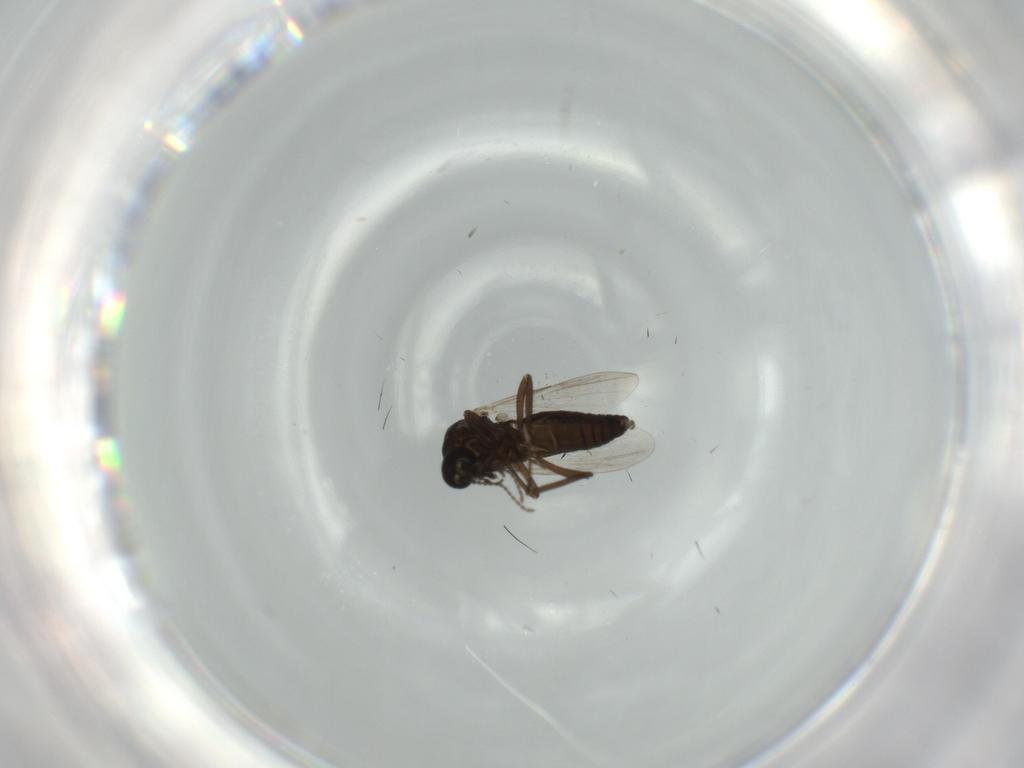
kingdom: Animalia
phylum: Arthropoda
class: Insecta
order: Diptera
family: Ceratopogonidae
